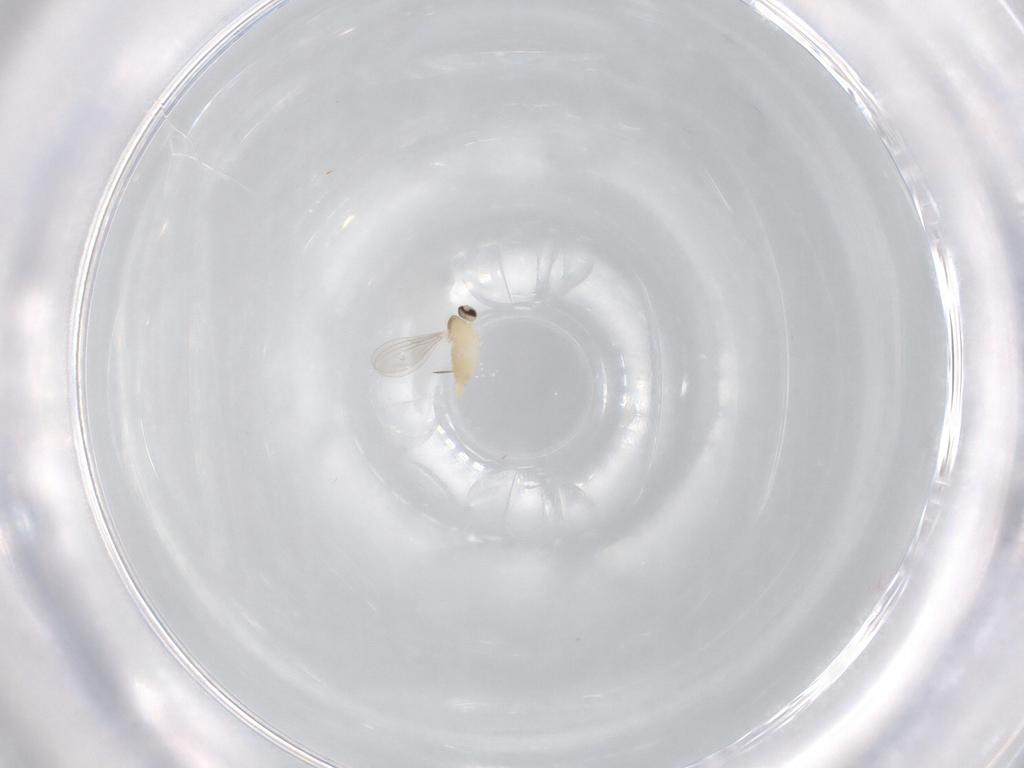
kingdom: Animalia
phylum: Arthropoda
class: Insecta
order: Diptera
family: Cecidomyiidae
